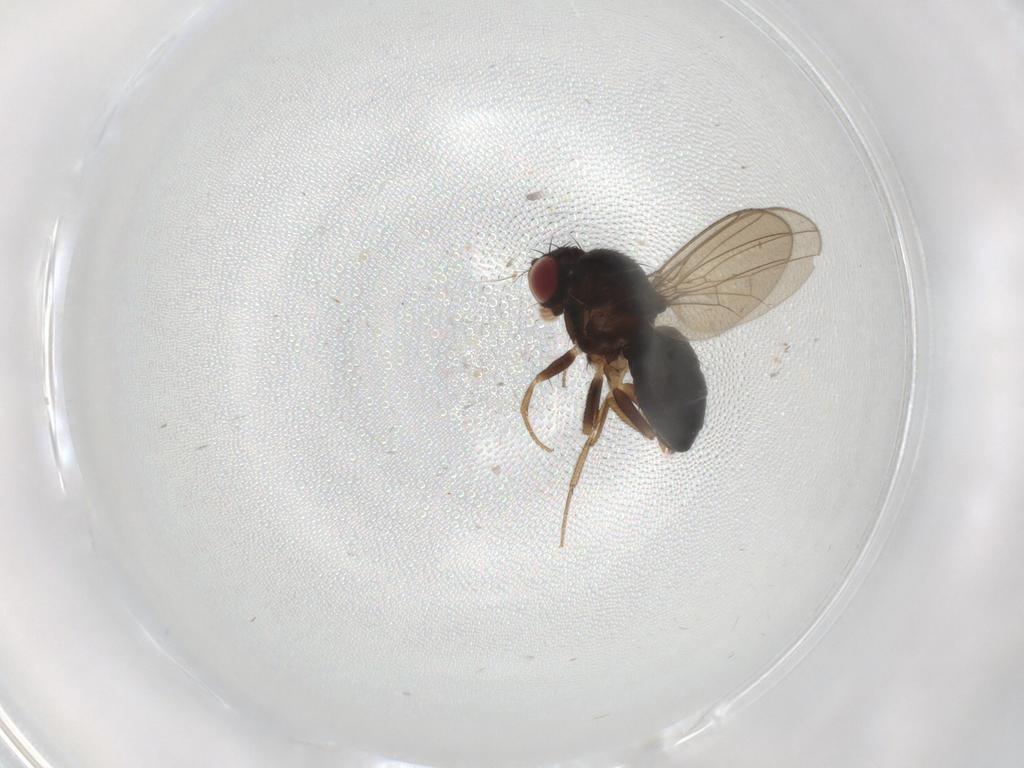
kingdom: Animalia
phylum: Arthropoda
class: Insecta
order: Diptera
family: Drosophilidae
